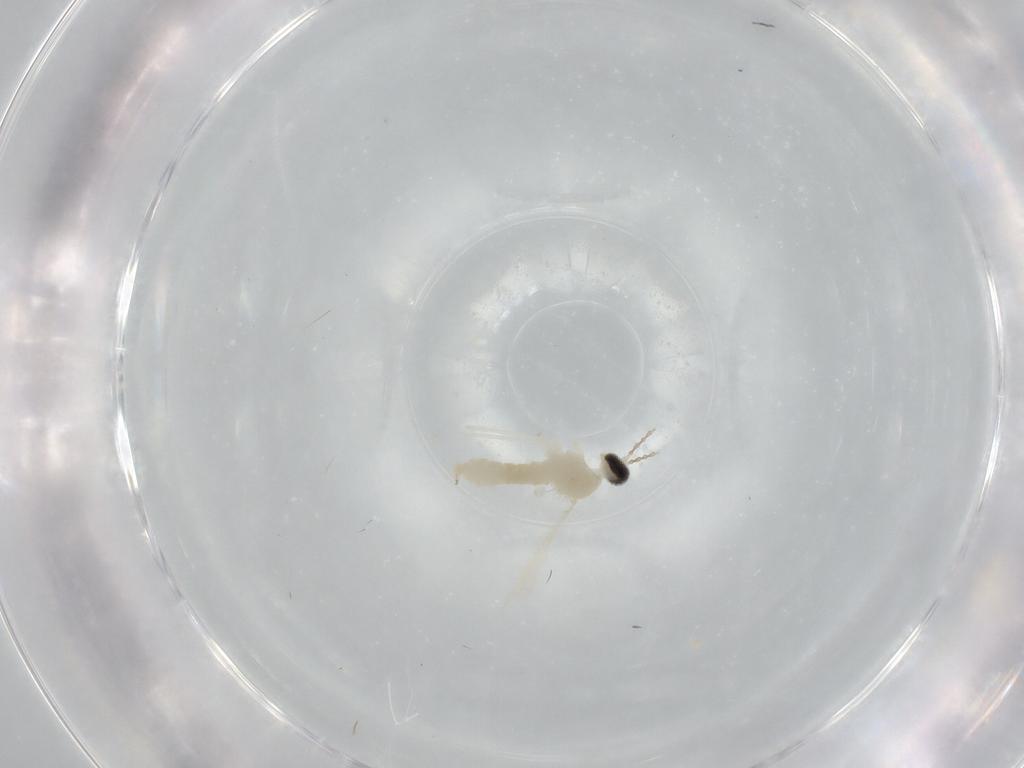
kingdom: Animalia
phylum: Arthropoda
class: Insecta
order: Diptera
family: Cecidomyiidae
